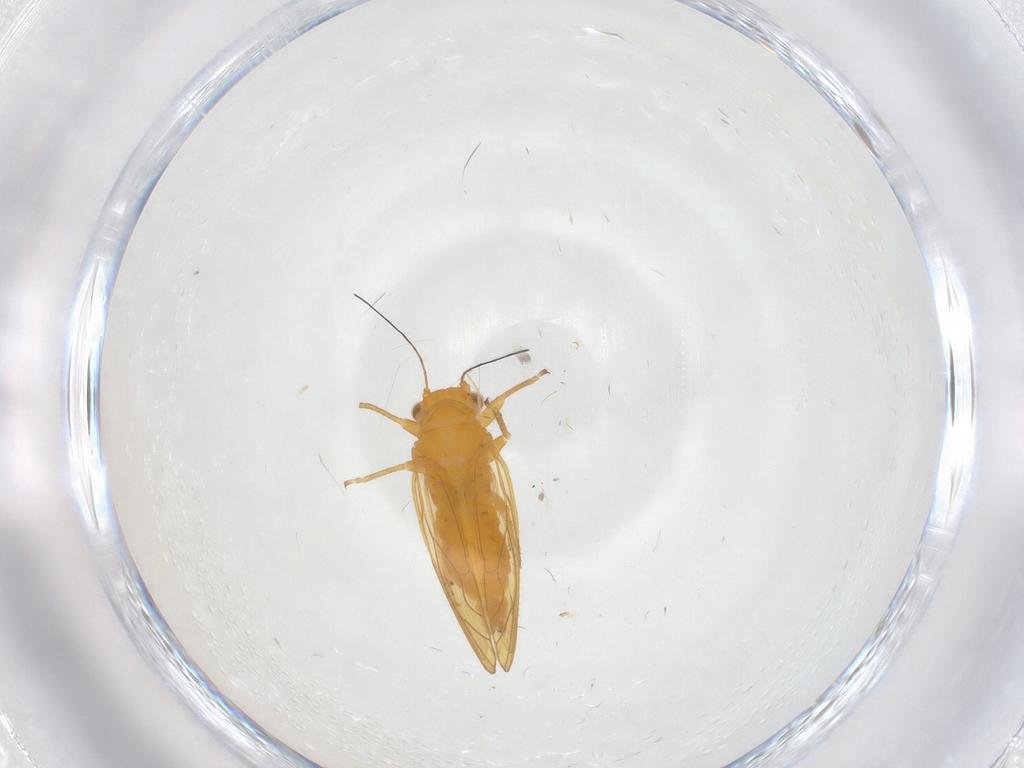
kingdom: Animalia
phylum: Arthropoda
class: Insecta
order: Hemiptera
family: Psyllidae
